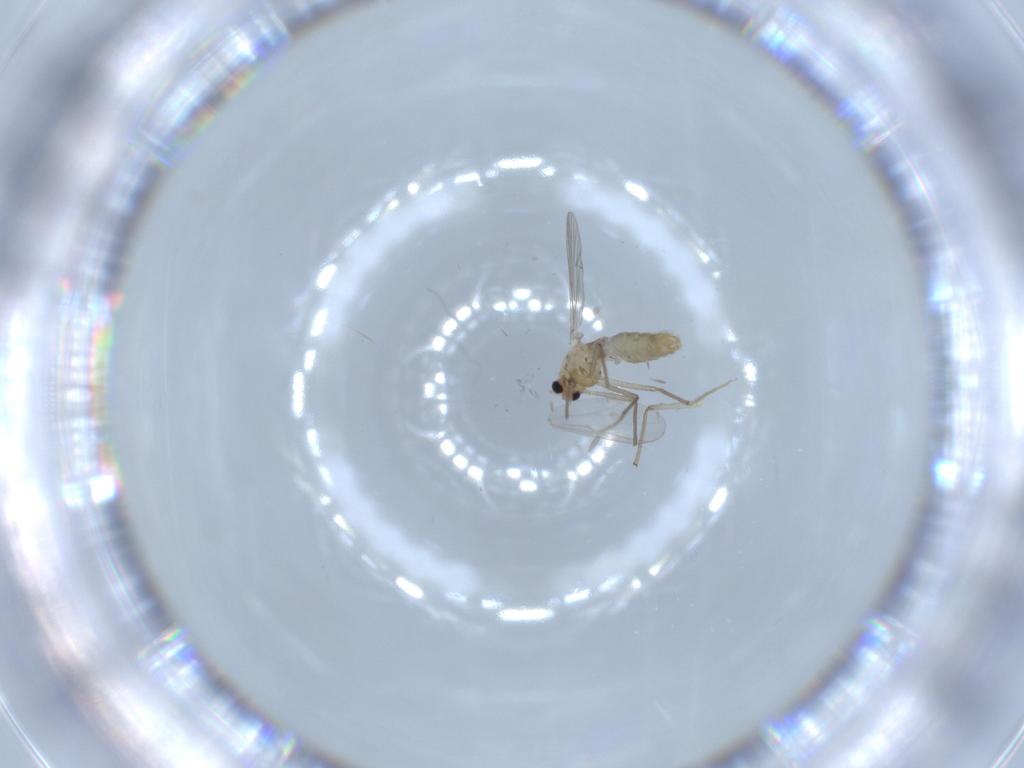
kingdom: Animalia
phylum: Arthropoda
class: Insecta
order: Diptera
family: Chironomidae
